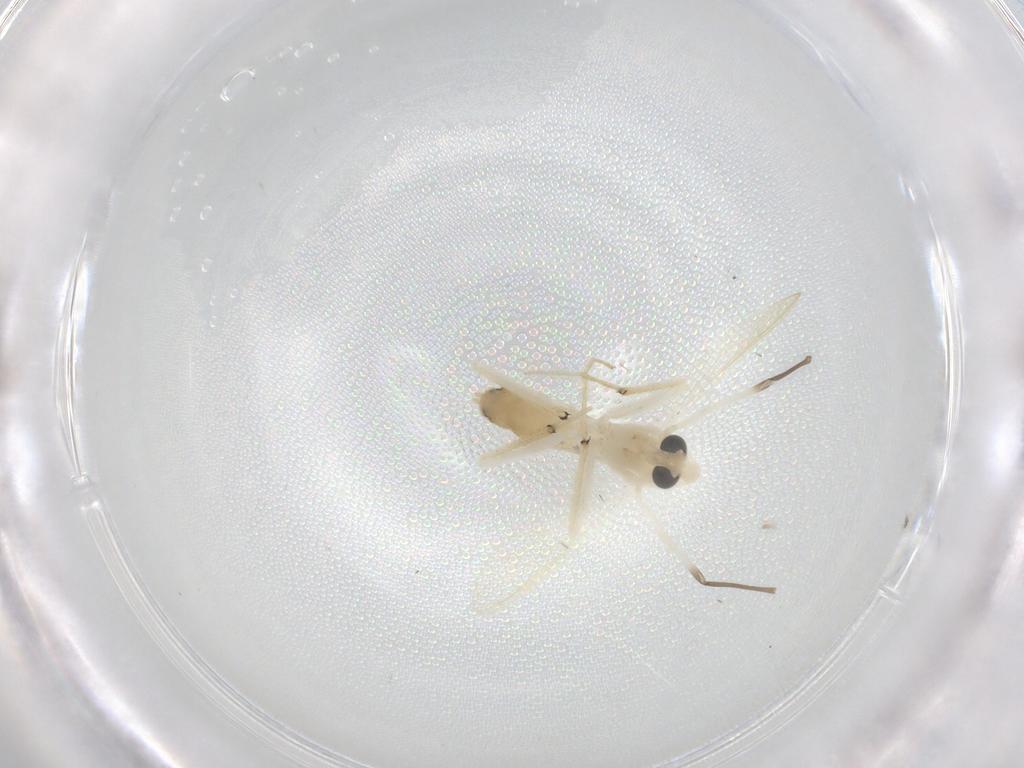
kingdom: Animalia
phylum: Arthropoda
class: Insecta
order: Diptera
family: Chironomidae
